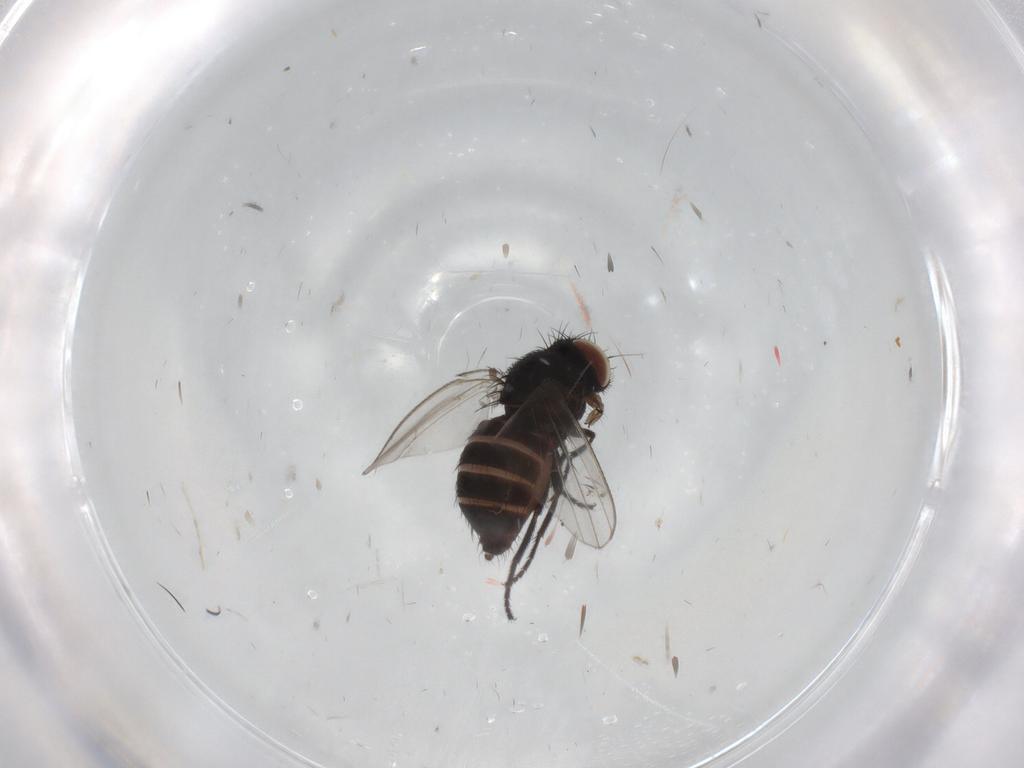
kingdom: Animalia
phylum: Arthropoda
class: Insecta
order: Diptera
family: Milichiidae
